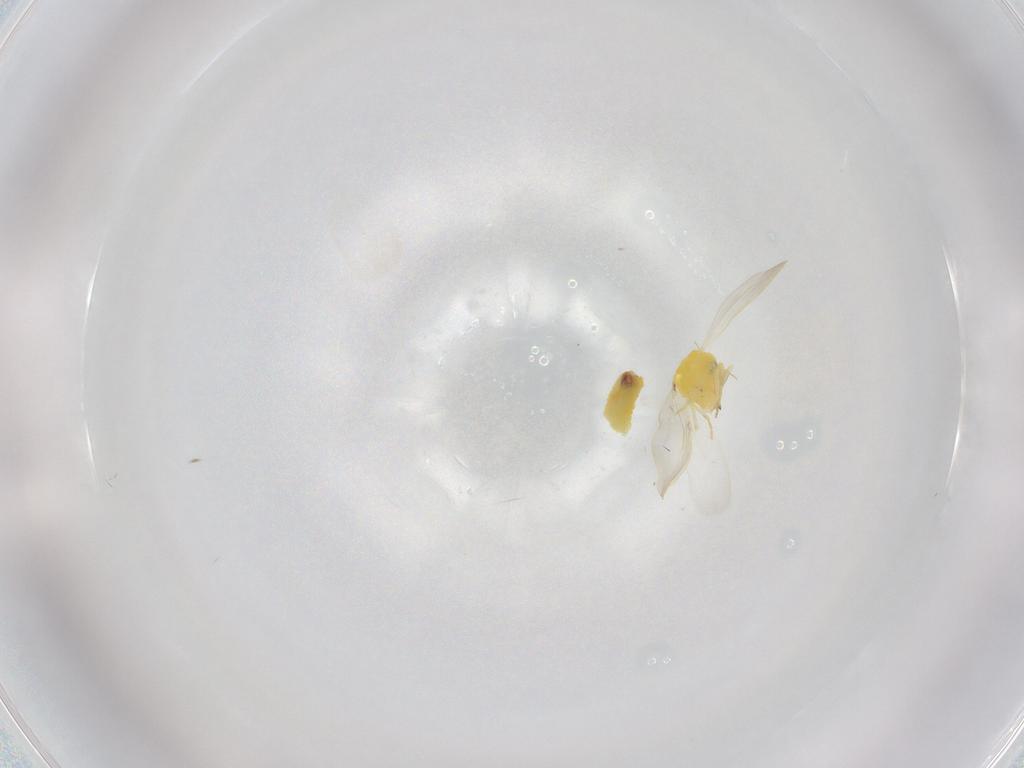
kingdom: Animalia
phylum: Arthropoda
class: Insecta
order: Hemiptera
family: Aleyrodidae
